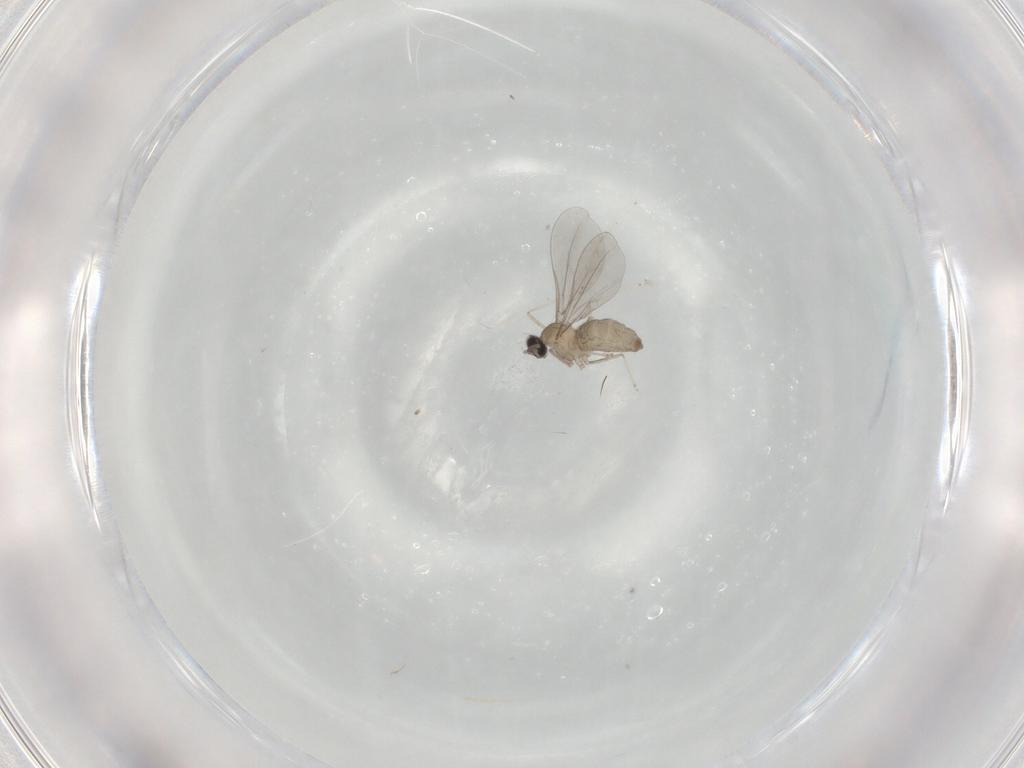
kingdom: Animalia
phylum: Arthropoda
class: Insecta
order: Diptera
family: Cecidomyiidae
